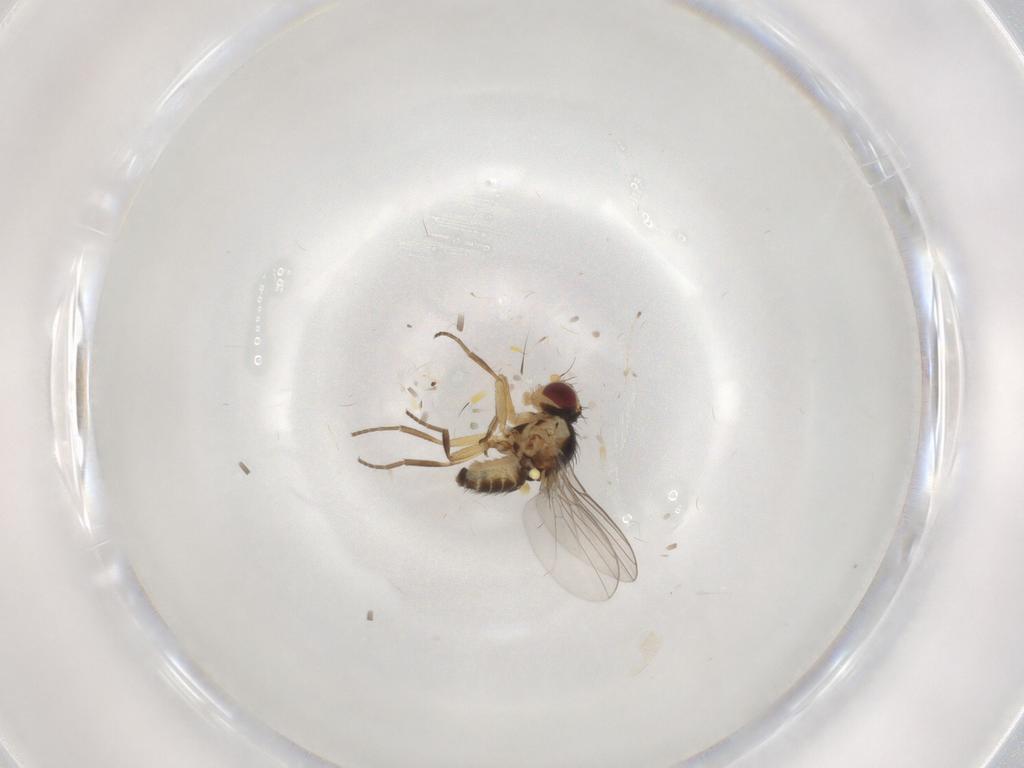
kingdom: Animalia
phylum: Arthropoda
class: Insecta
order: Diptera
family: Agromyzidae
